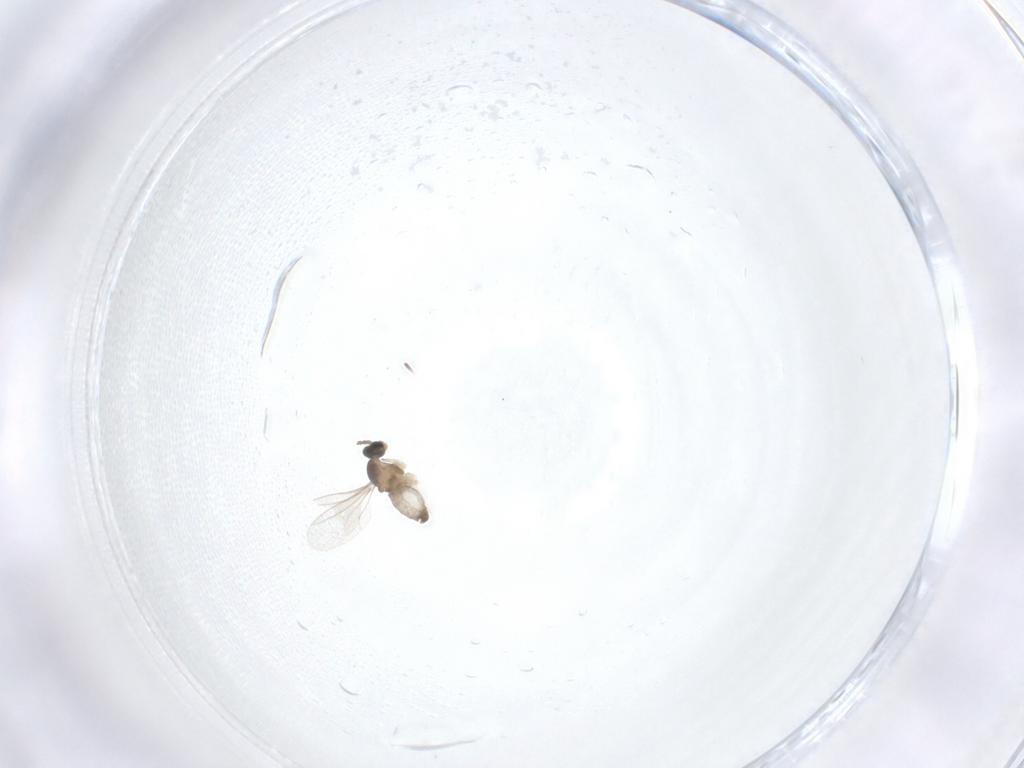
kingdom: Animalia
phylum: Arthropoda
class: Insecta
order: Diptera
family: Cecidomyiidae
